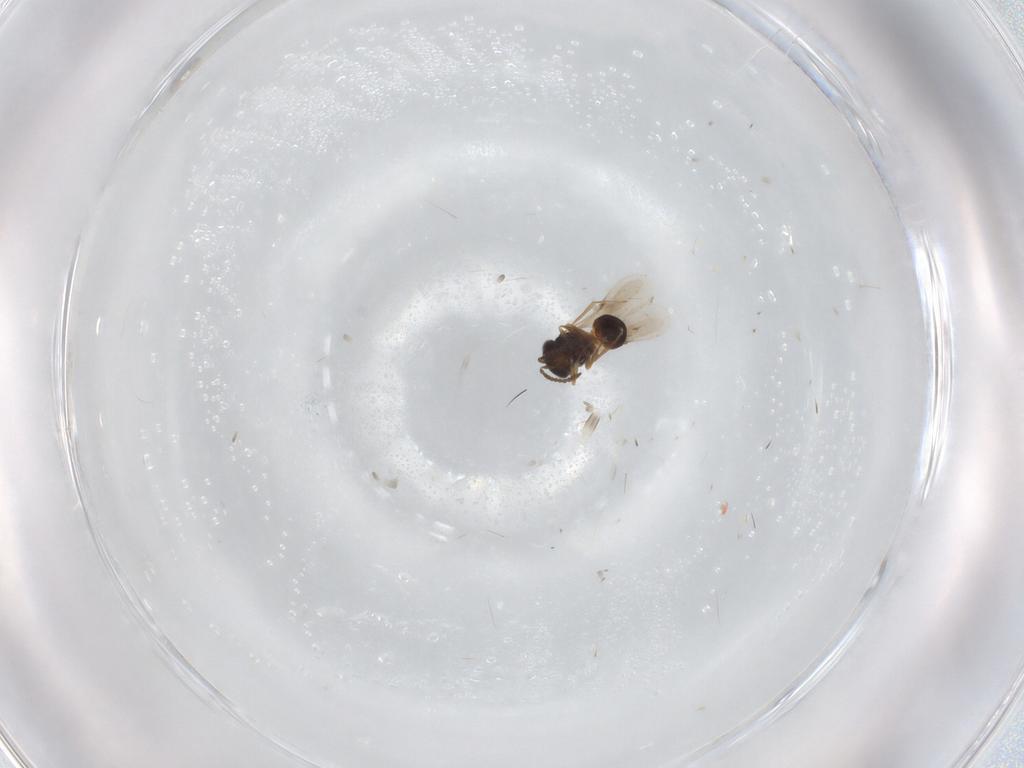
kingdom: Animalia
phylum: Arthropoda
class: Insecta
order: Hymenoptera
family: Scelionidae
